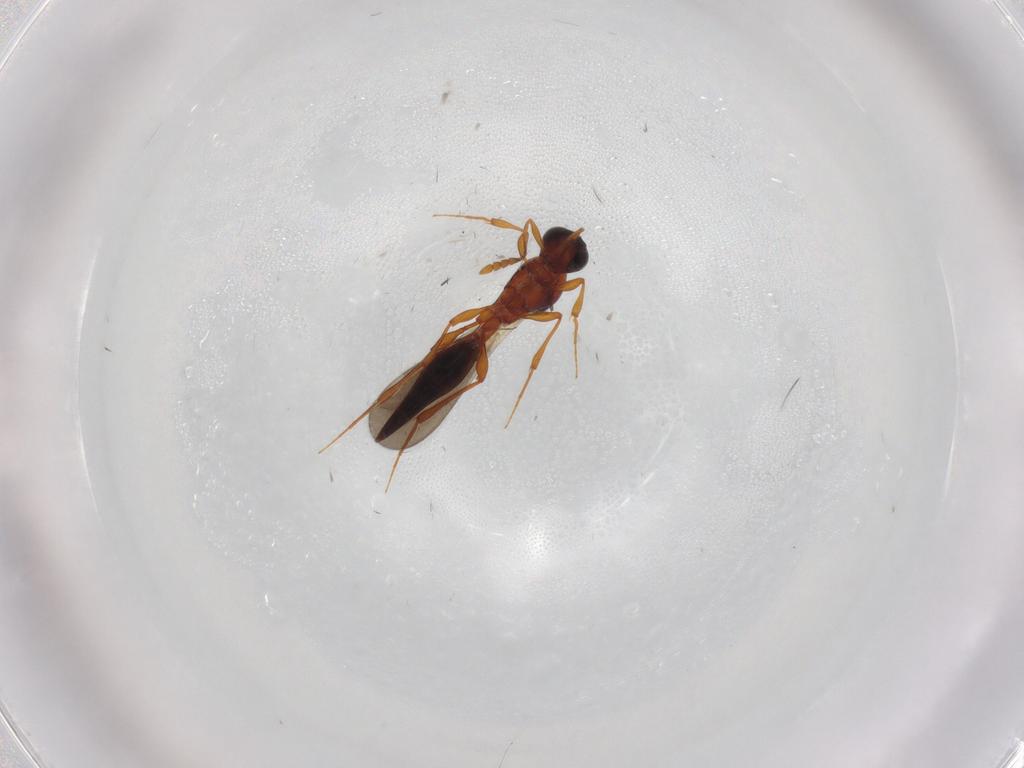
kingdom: Animalia
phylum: Arthropoda
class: Insecta
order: Hymenoptera
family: Platygastridae
